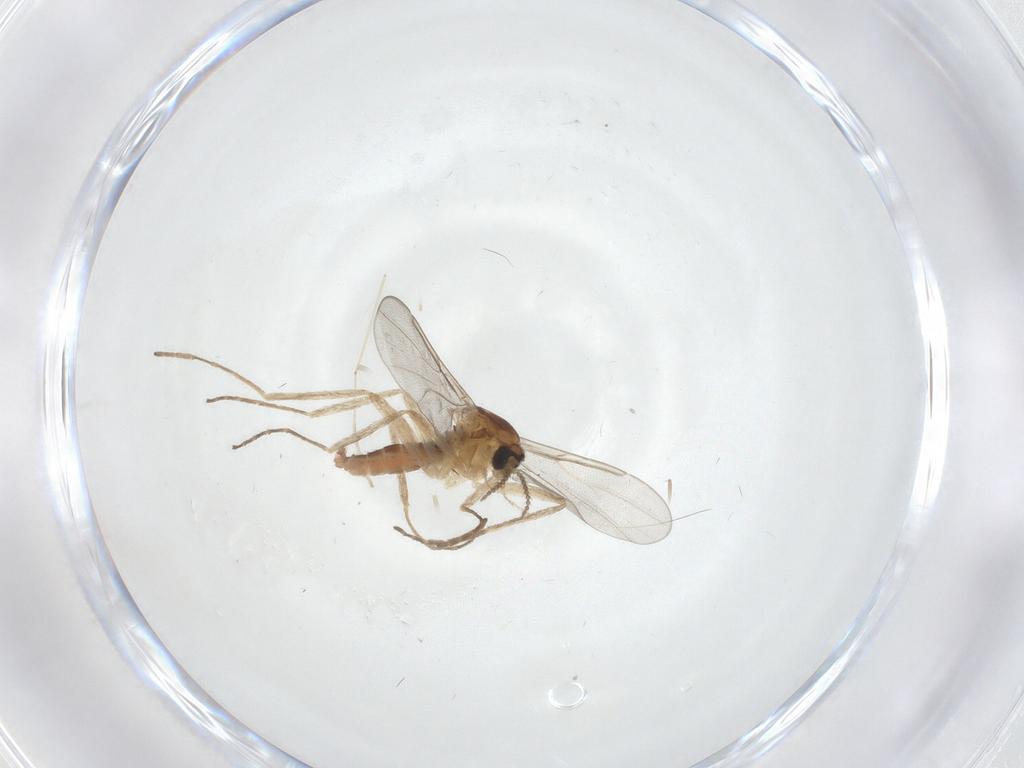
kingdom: Animalia
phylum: Arthropoda
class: Insecta
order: Diptera
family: Cecidomyiidae
